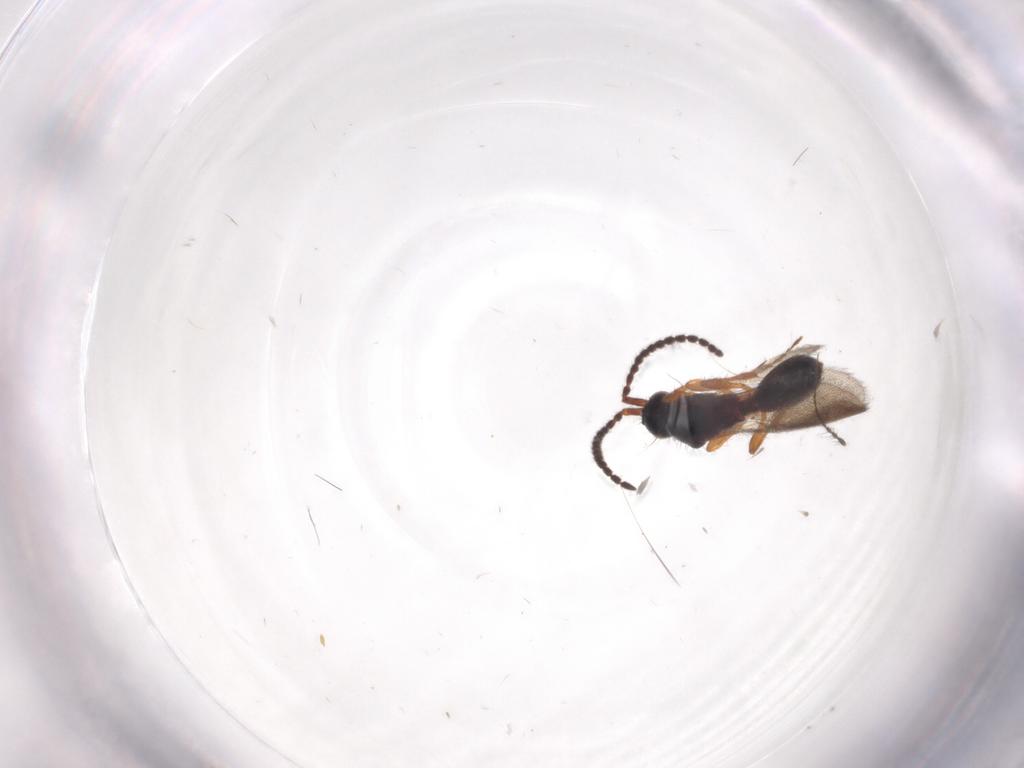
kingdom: Animalia
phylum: Arthropoda
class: Insecta
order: Hymenoptera
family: Diapriidae
